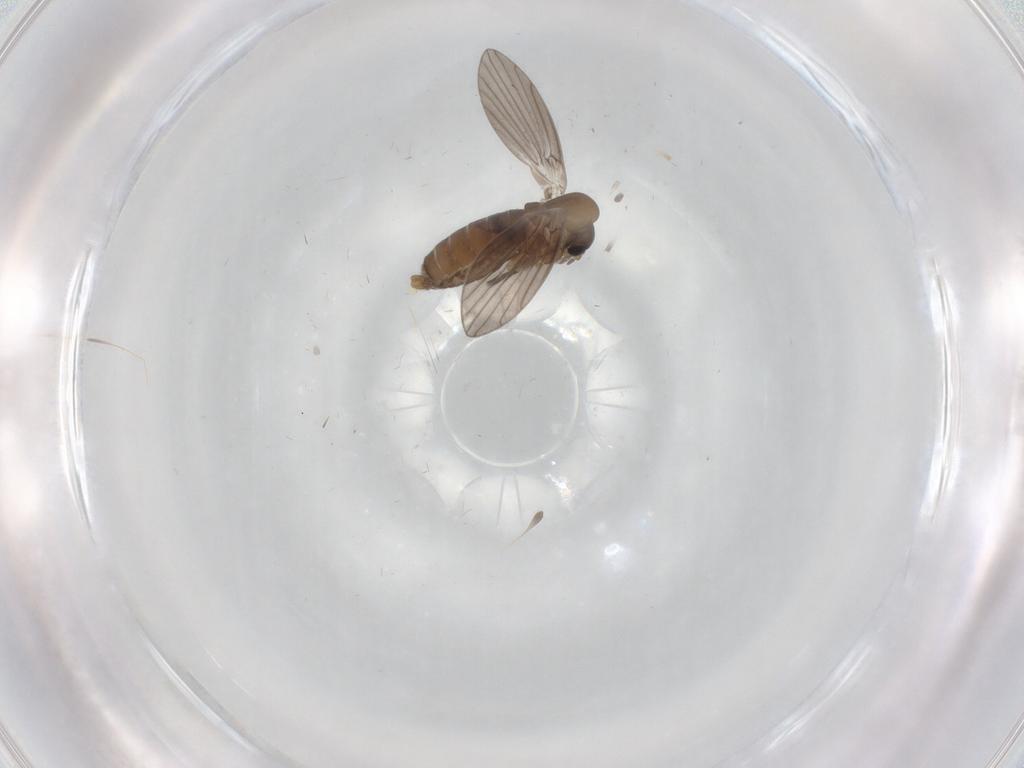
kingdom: Animalia
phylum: Arthropoda
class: Insecta
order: Diptera
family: Cecidomyiidae
